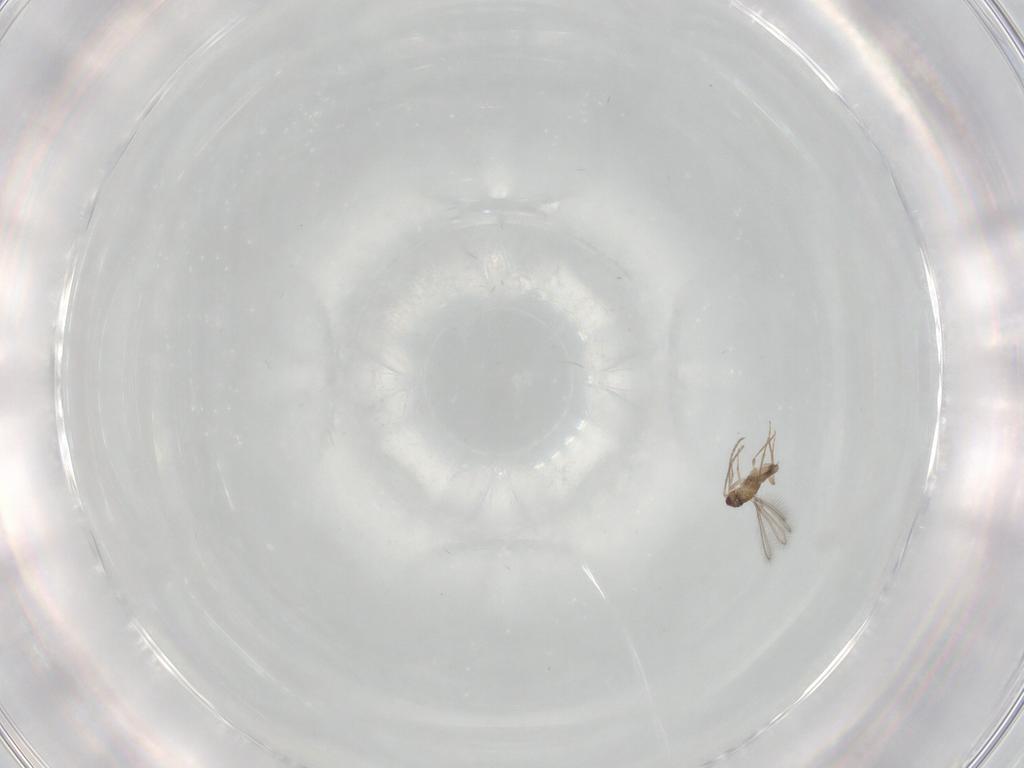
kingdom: Animalia
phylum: Arthropoda
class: Insecta
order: Hymenoptera
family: Mymaridae
